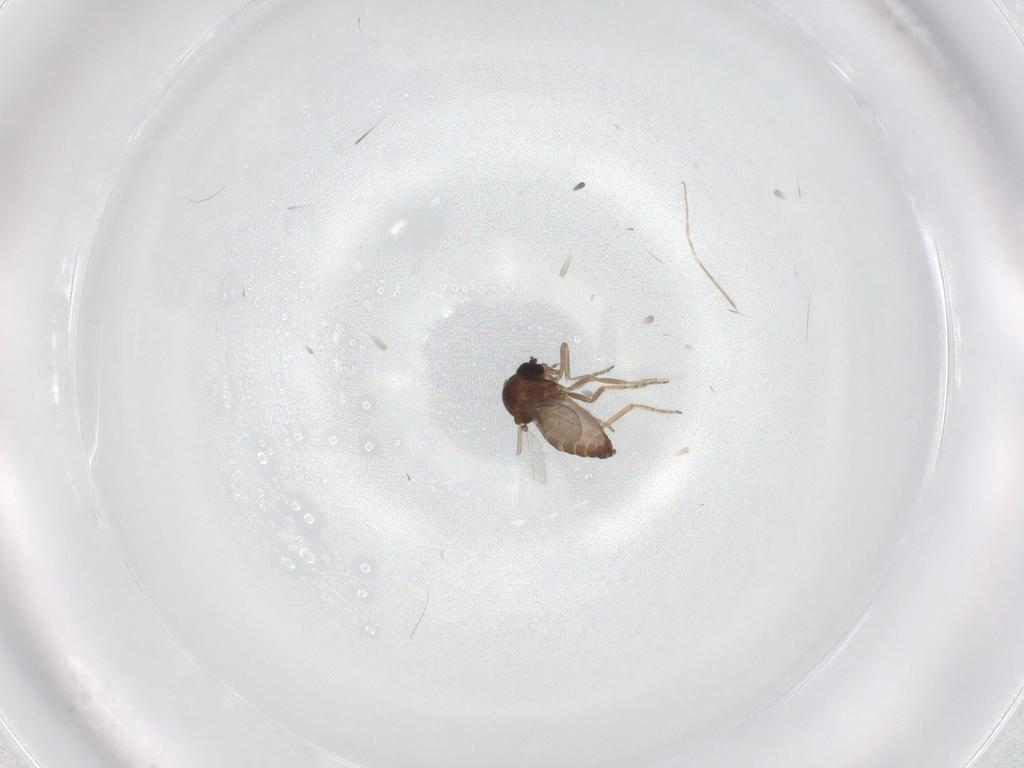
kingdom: Animalia
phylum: Arthropoda
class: Insecta
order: Diptera
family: Ceratopogonidae
